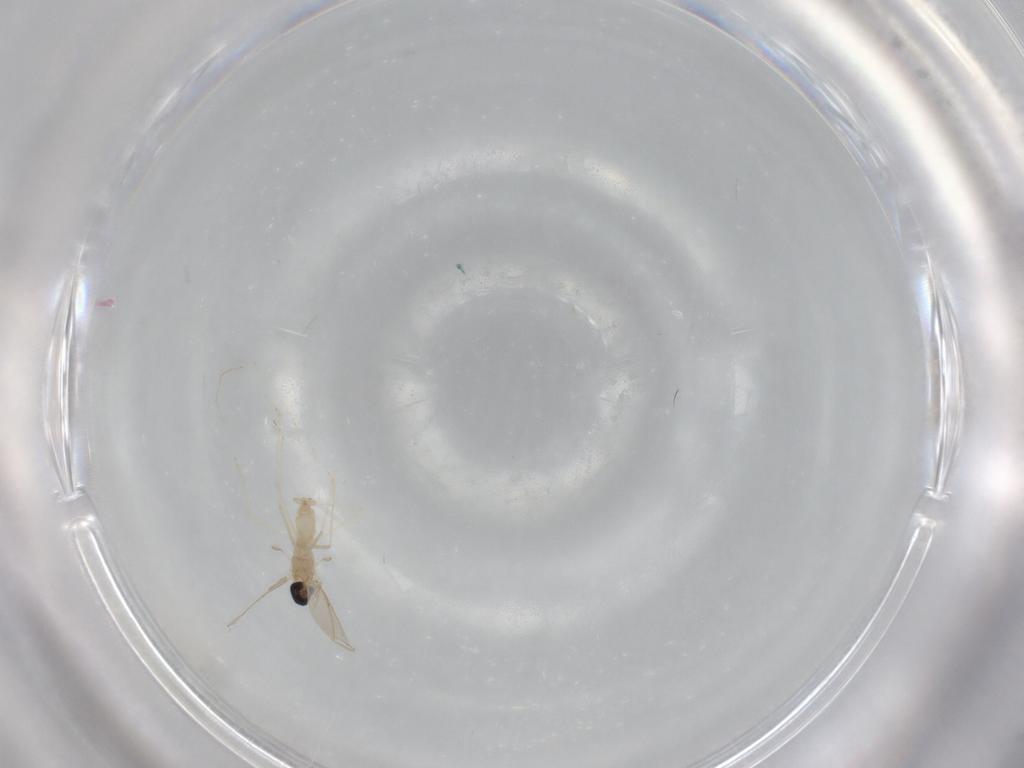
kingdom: Animalia
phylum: Arthropoda
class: Insecta
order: Diptera
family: Cecidomyiidae
